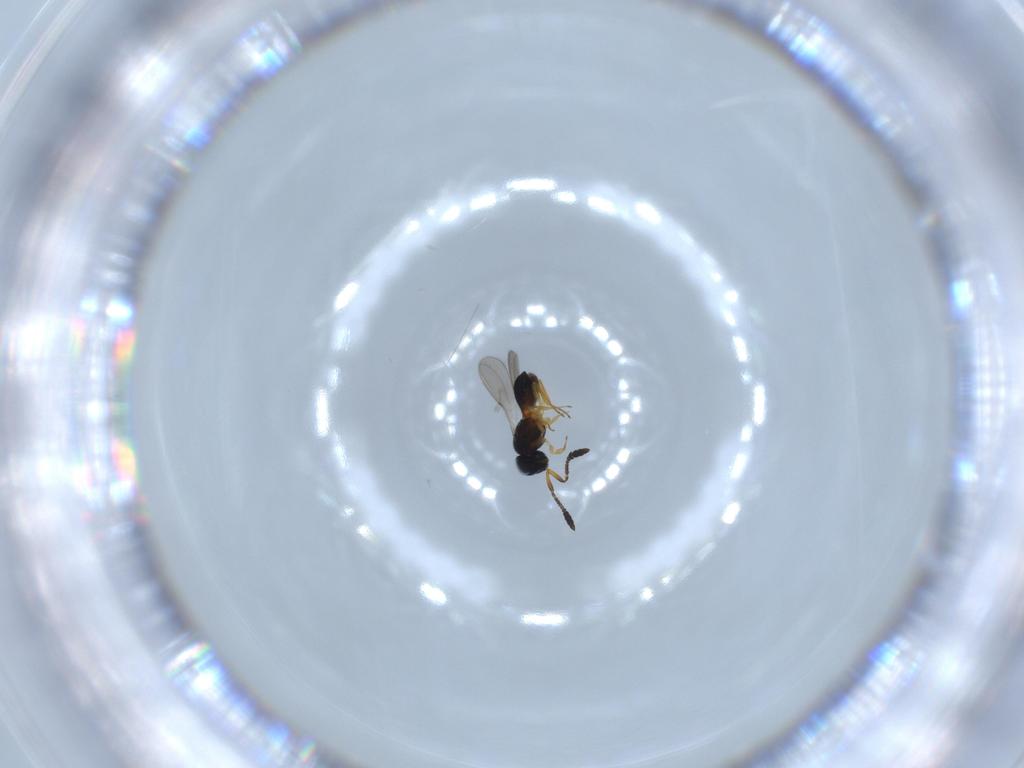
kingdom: Animalia
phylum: Arthropoda
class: Insecta
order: Hymenoptera
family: Scelionidae
